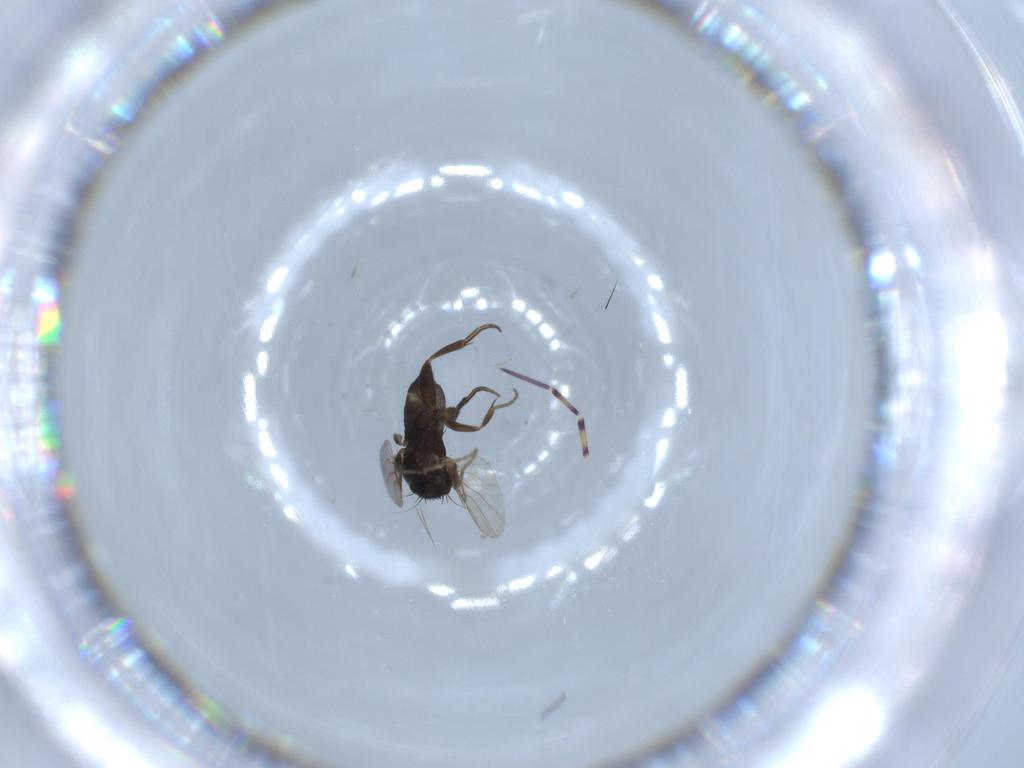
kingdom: Animalia
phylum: Arthropoda
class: Insecta
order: Diptera
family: Phoridae
